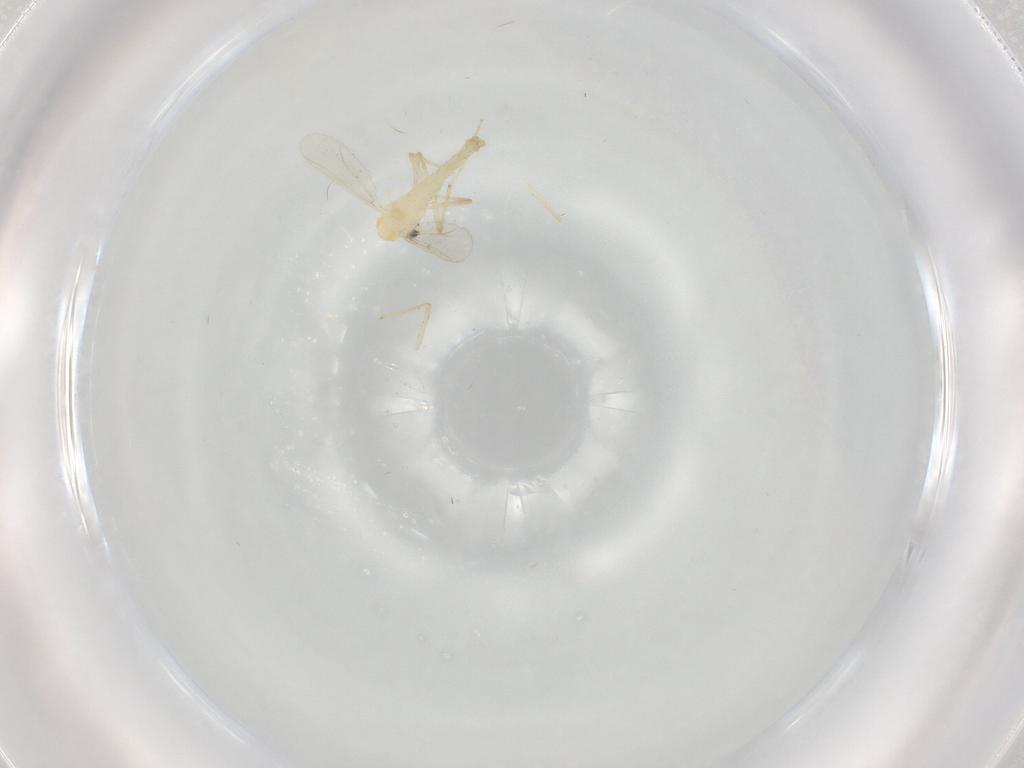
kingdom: Animalia
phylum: Arthropoda
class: Insecta
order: Diptera
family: Chironomidae
